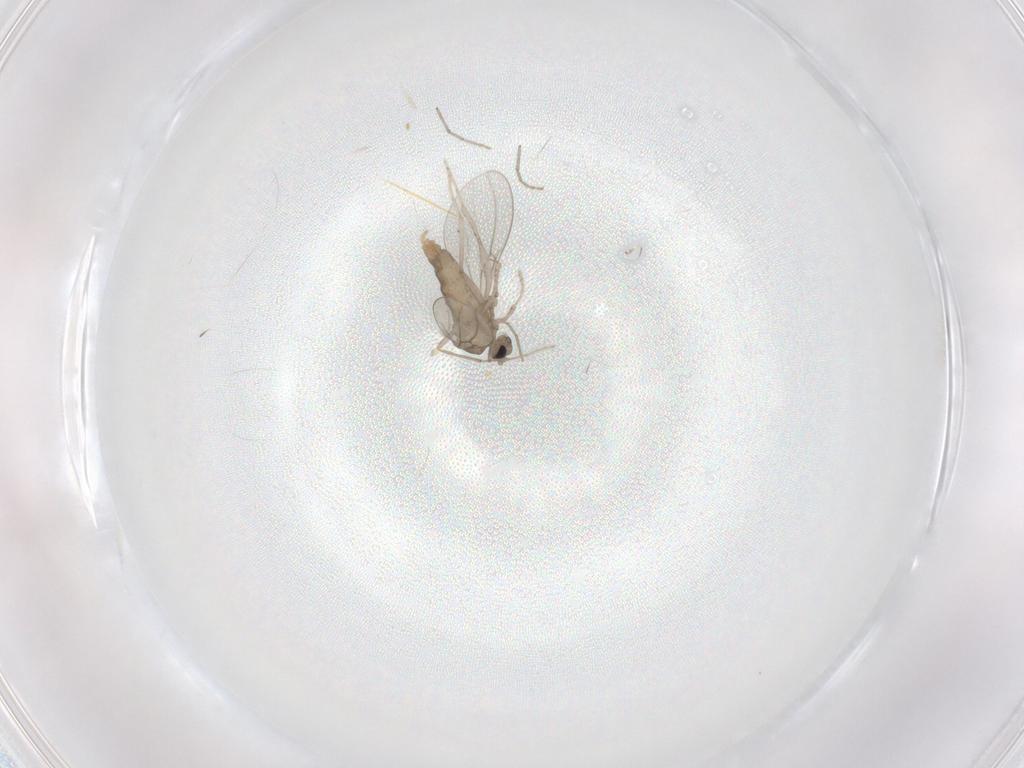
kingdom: Animalia
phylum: Arthropoda
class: Insecta
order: Diptera
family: Cecidomyiidae
